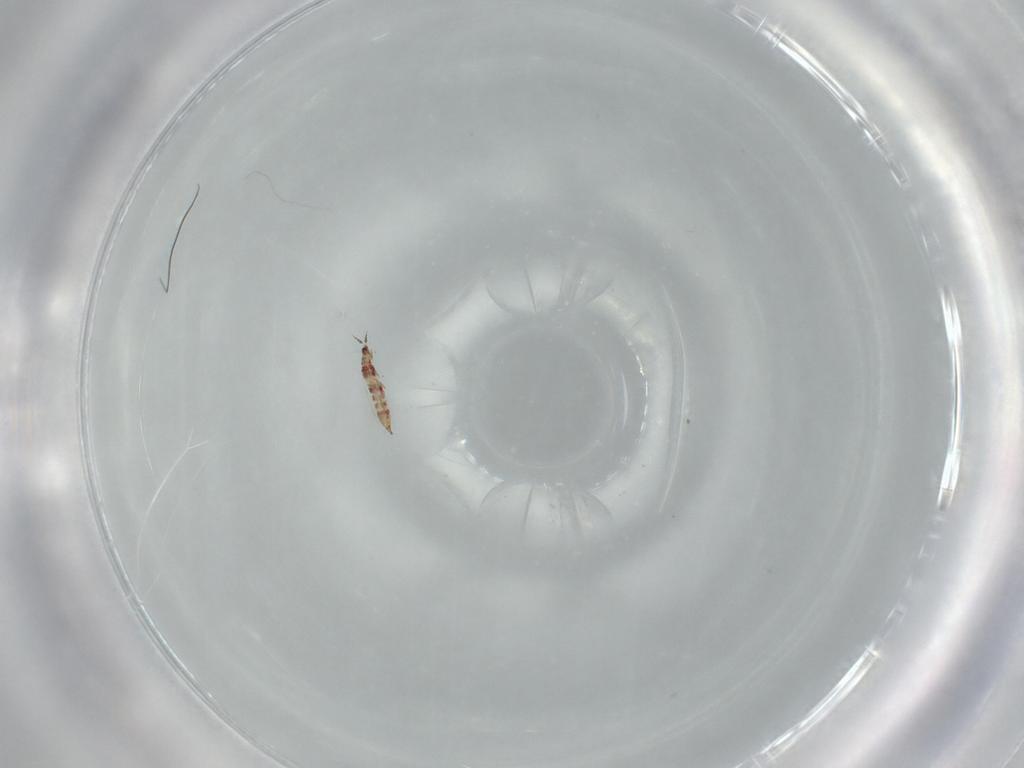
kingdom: Animalia
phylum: Arthropoda
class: Insecta
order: Thysanoptera
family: Phlaeothripidae
